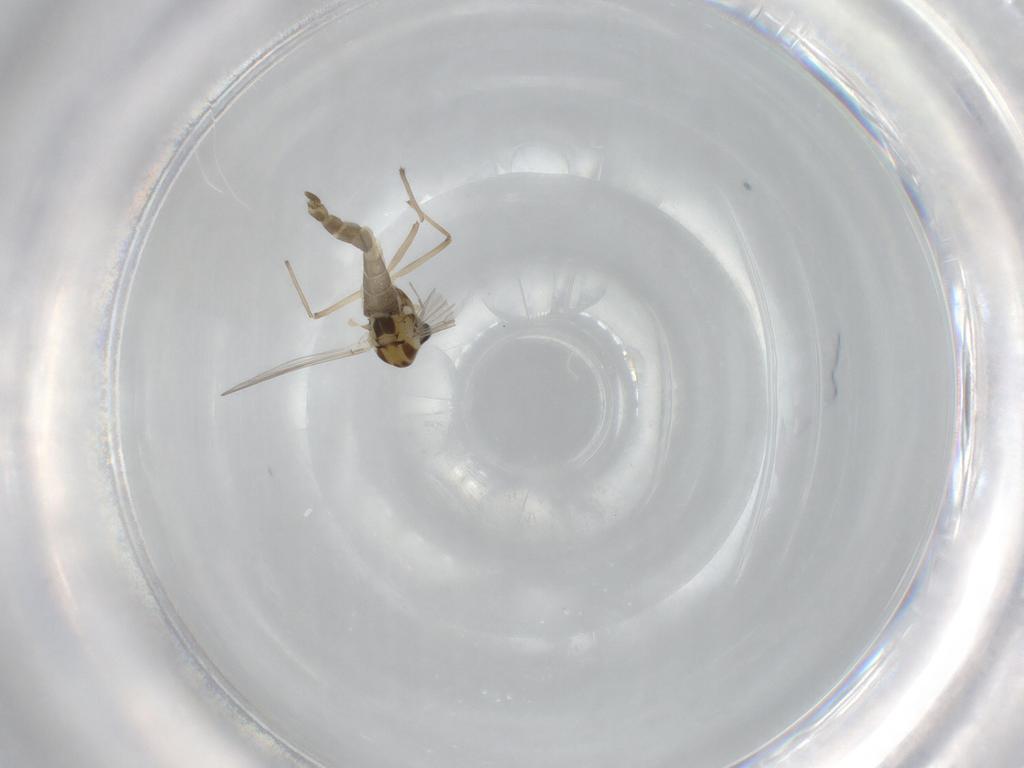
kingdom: Animalia
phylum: Arthropoda
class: Insecta
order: Diptera
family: Chironomidae
